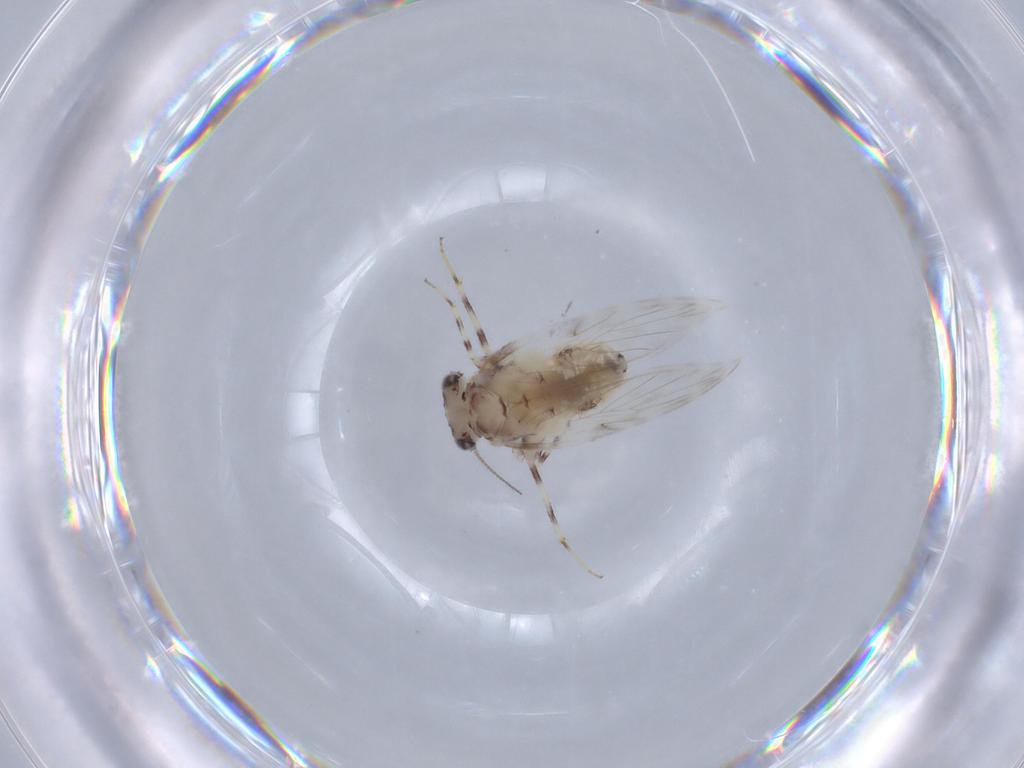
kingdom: Animalia
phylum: Arthropoda
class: Insecta
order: Psocodea
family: Lepidopsocidae
